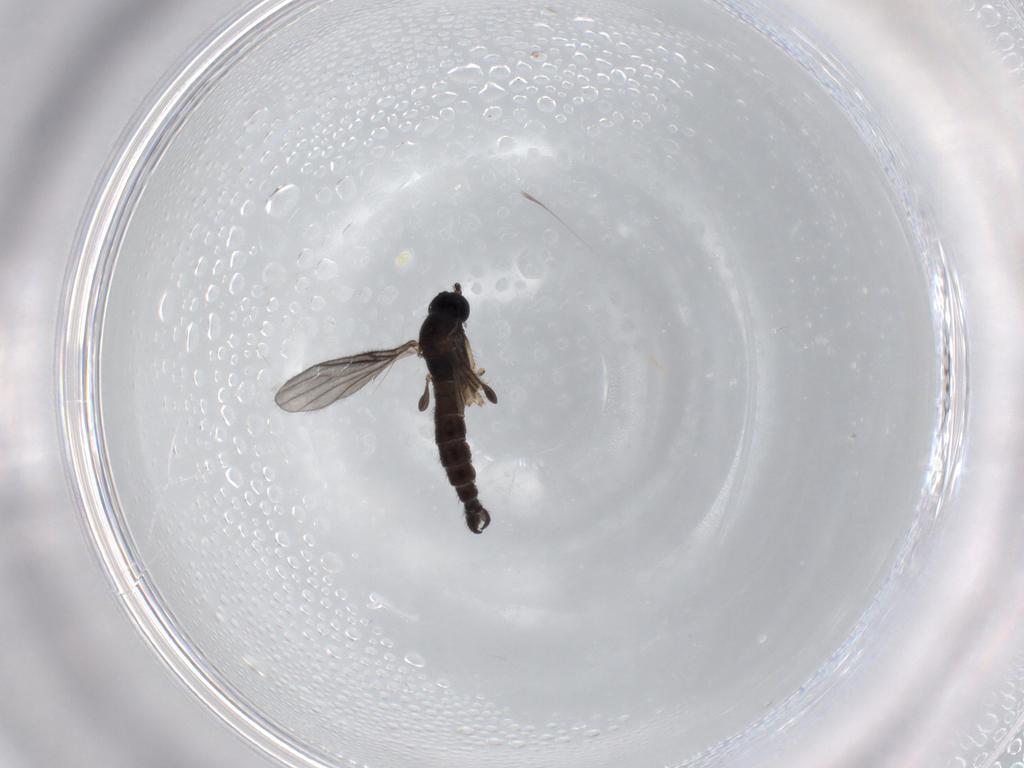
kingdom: Animalia
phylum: Arthropoda
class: Insecta
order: Diptera
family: Sciaridae
